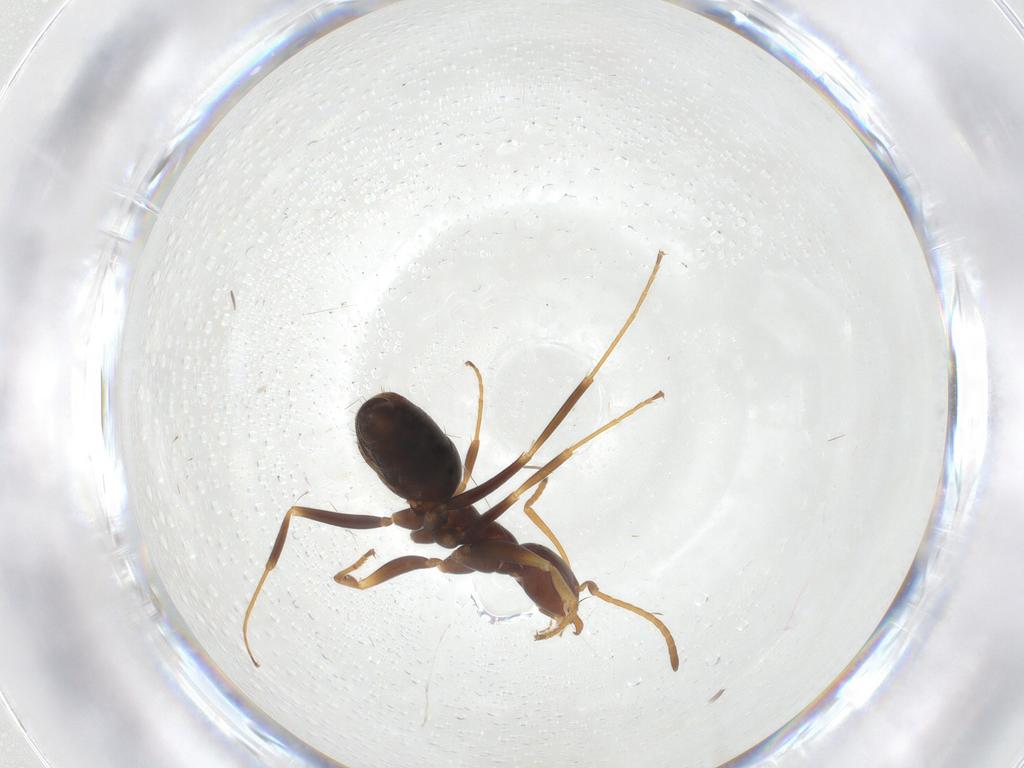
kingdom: Animalia
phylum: Arthropoda
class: Insecta
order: Hymenoptera
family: Formicidae
